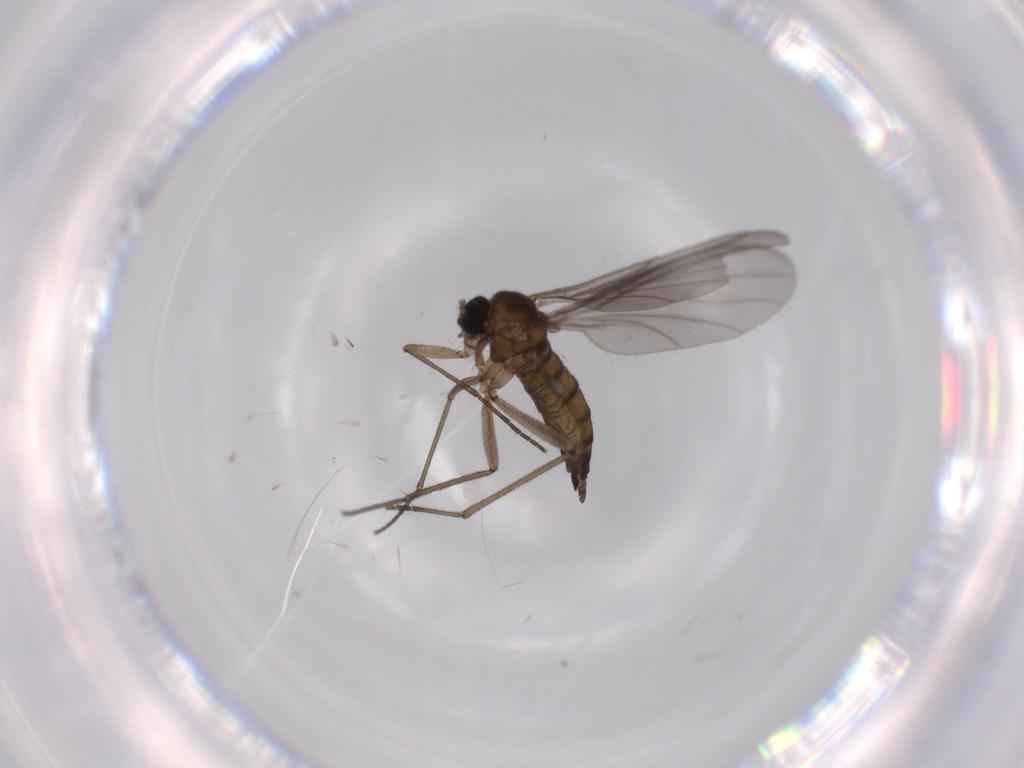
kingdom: Animalia
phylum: Arthropoda
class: Insecta
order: Diptera
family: Sciaridae
